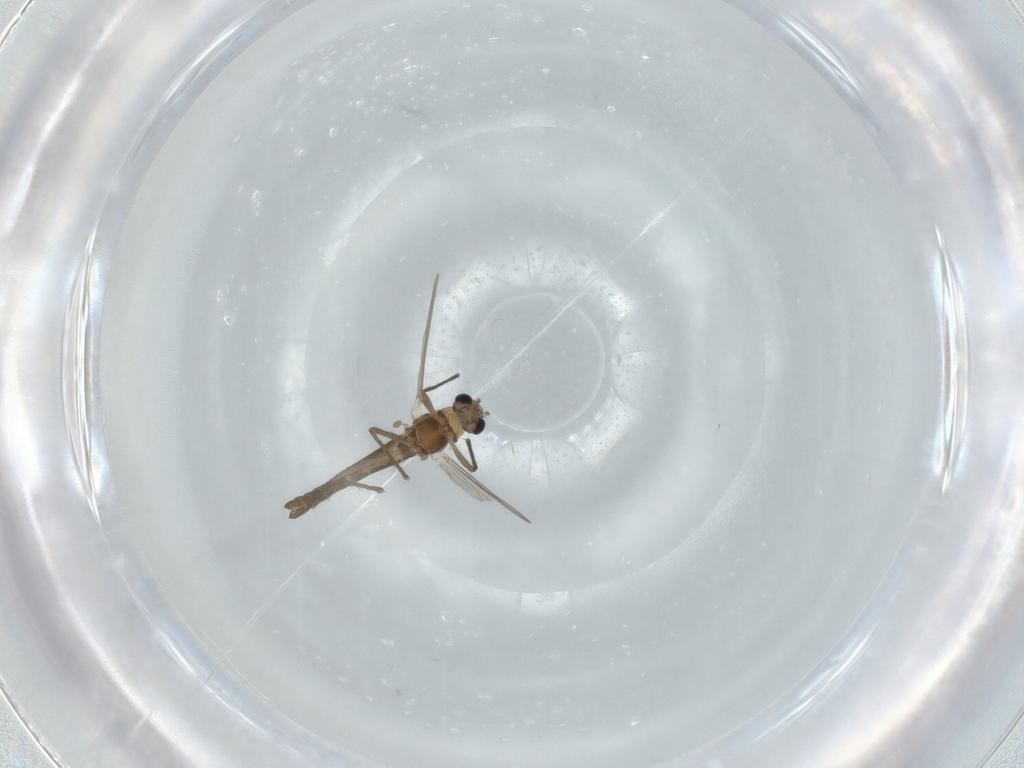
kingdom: Animalia
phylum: Arthropoda
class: Insecta
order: Diptera
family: Chironomidae
